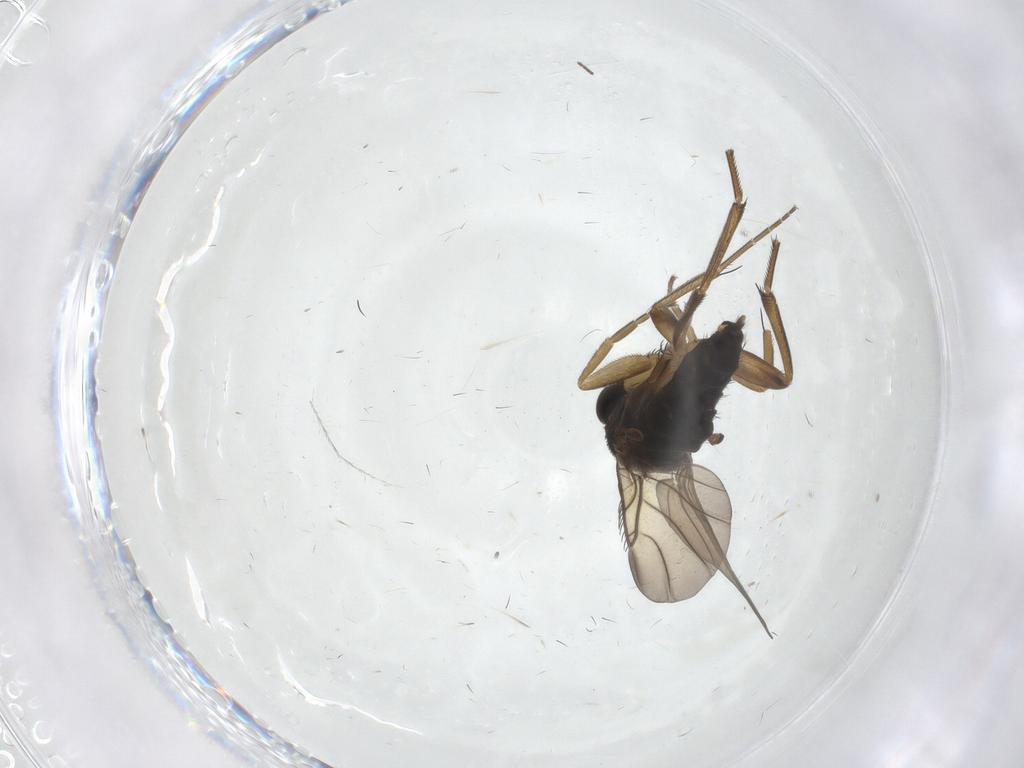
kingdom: Animalia
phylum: Arthropoda
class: Insecta
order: Diptera
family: Phoridae
